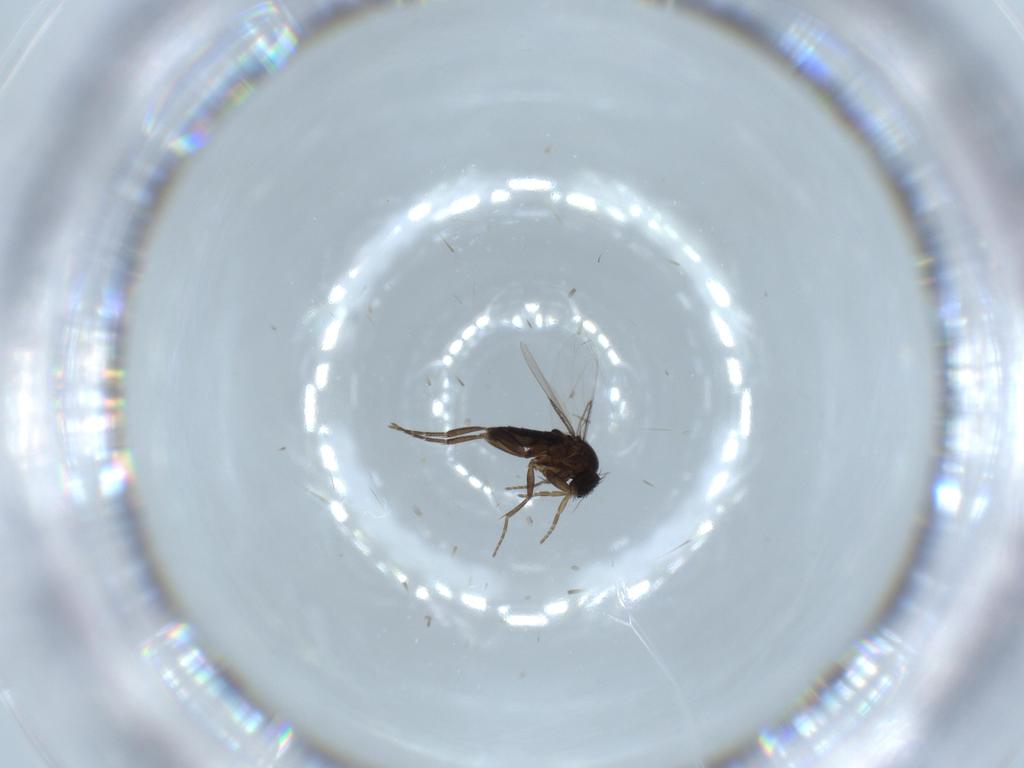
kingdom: Animalia
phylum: Arthropoda
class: Insecta
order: Diptera
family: Phoridae
